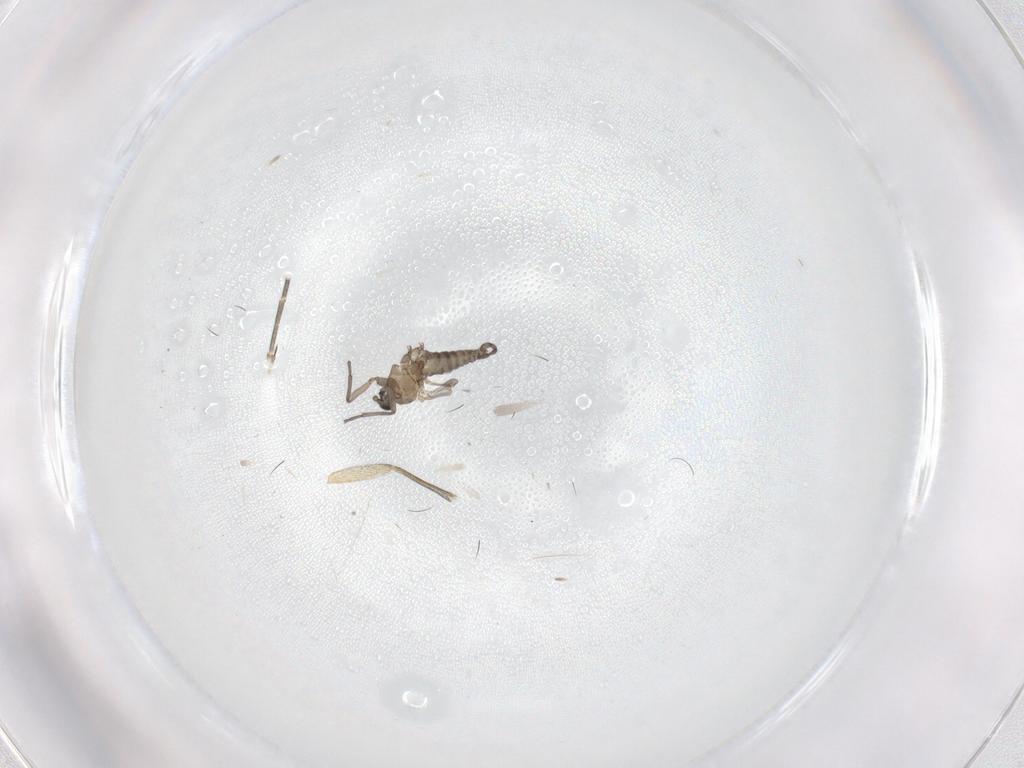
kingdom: Animalia
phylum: Arthropoda
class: Insecta
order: Diptera
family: Sciaridae
